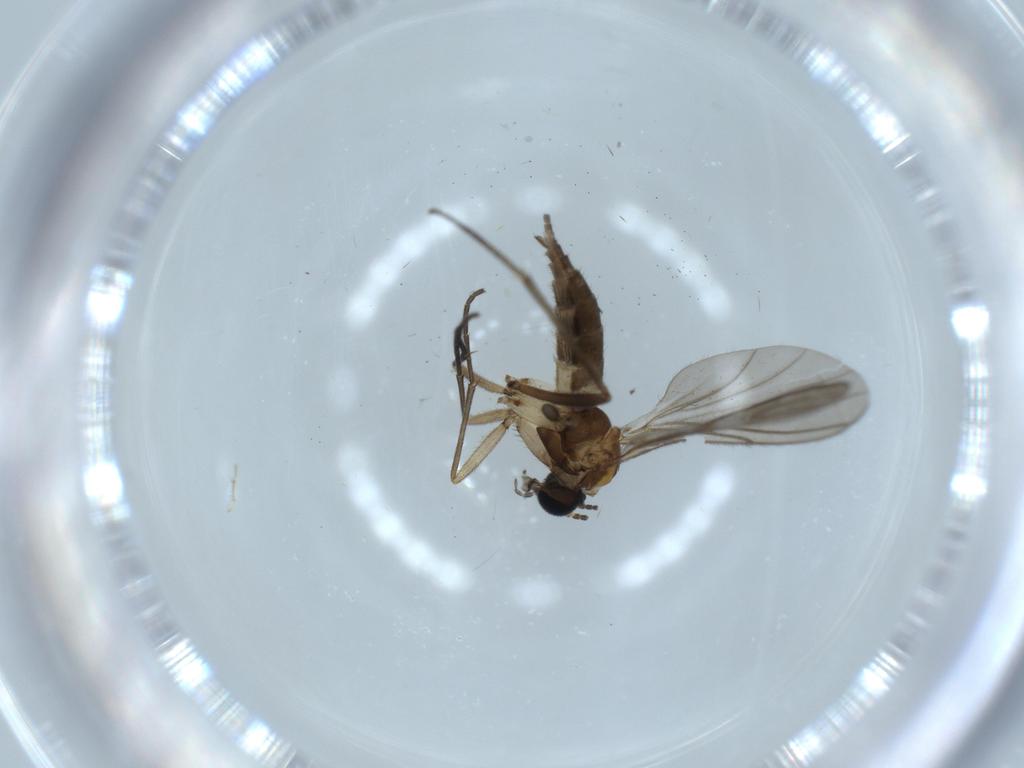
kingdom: Animalia
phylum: Arthropoda
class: Insecta
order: Diptera
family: Sciaridae
